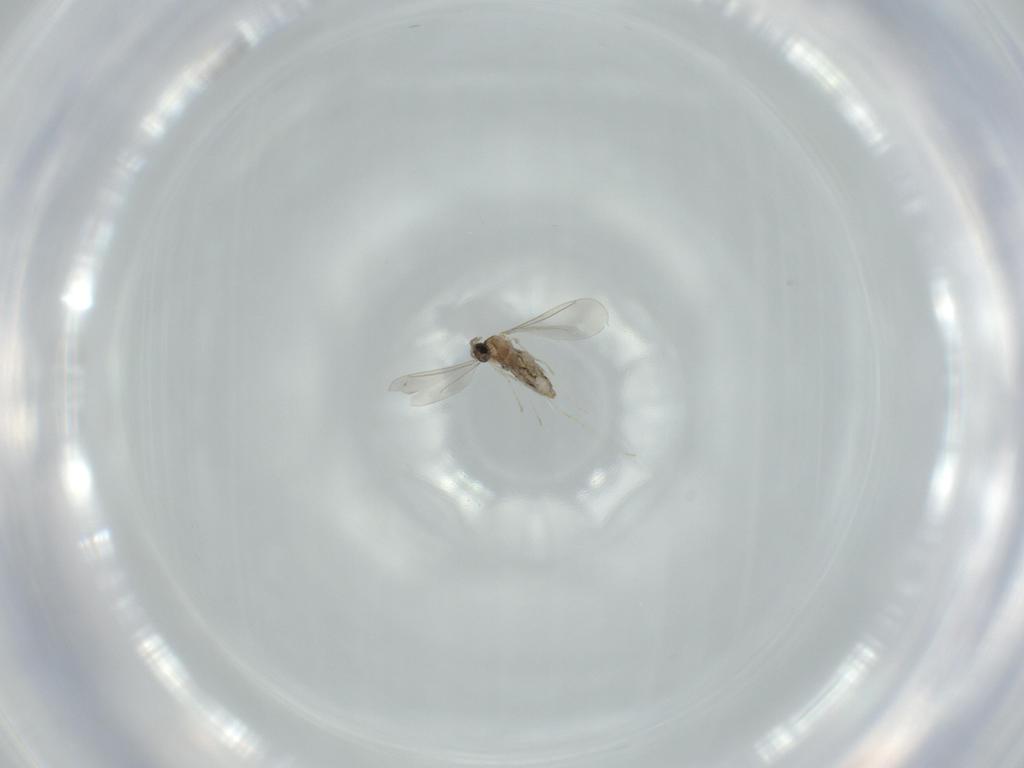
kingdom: Animalia
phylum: Arthropoda
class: Insecta
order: Diptera
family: Cecidomyiidae
